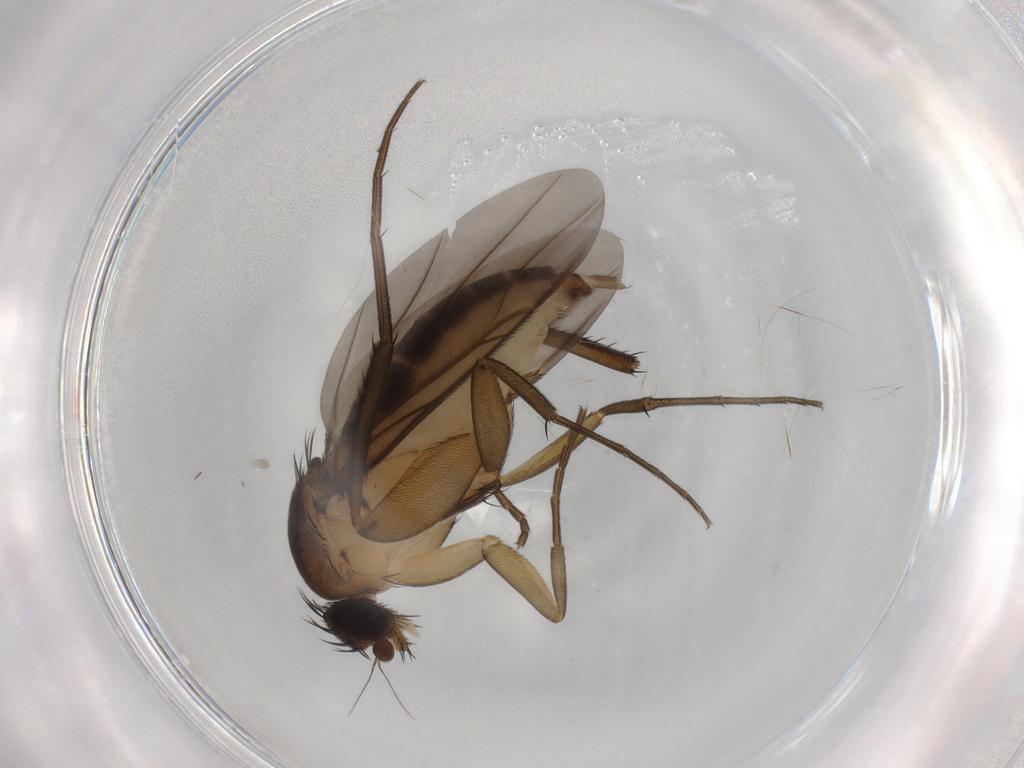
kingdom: Animalia
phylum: Arthropoda
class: Insecta
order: Diptera
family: Phoridae
